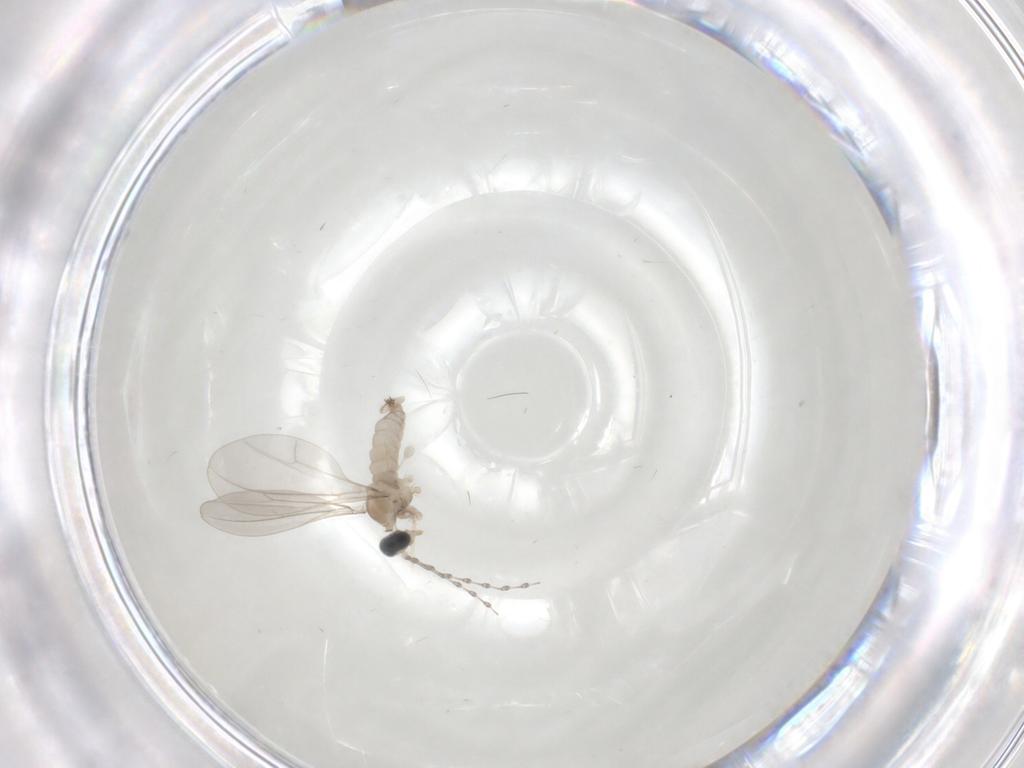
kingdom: Animalia
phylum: Arthropoda
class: Insecta
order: Diptera
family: Cecidomyiidae
